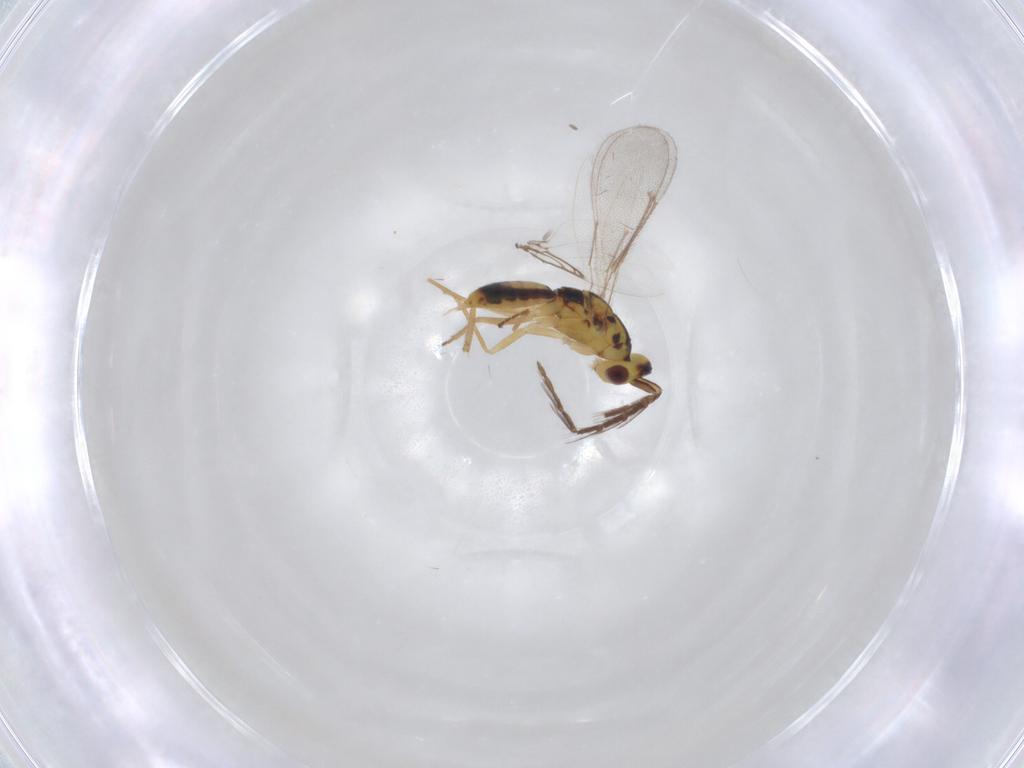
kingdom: Animalia
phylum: Arthropoda
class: Insecta
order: Hymenoptera
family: Eulophidae
